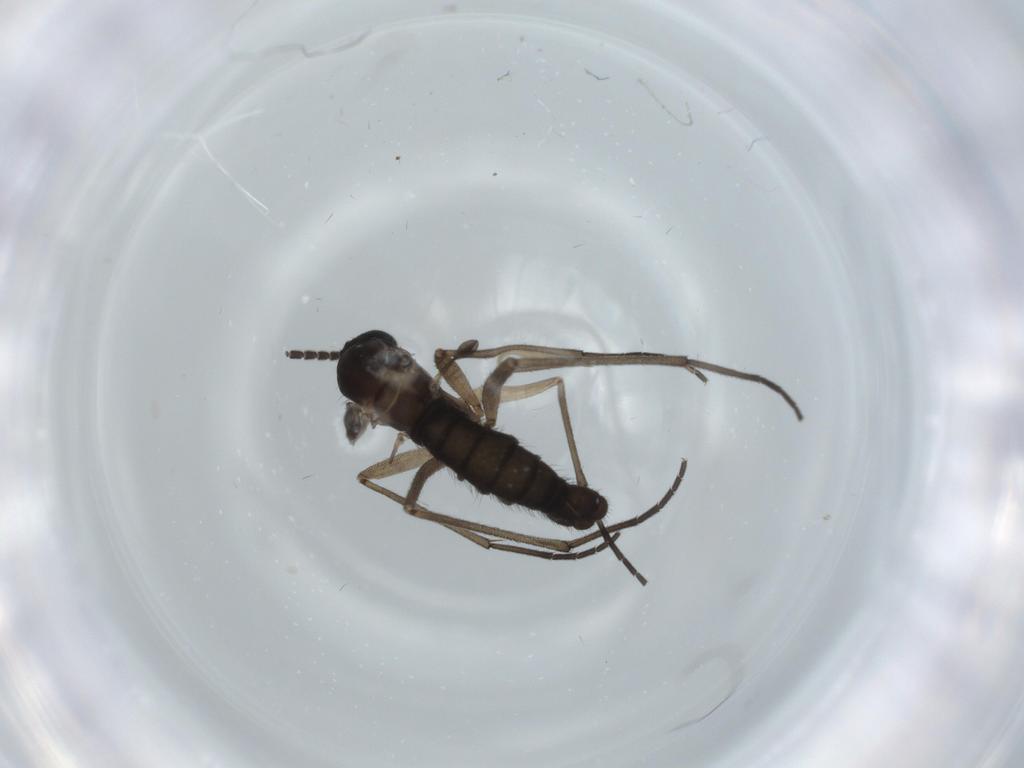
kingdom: Animalia
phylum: Arthropoda
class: Insecta
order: Diptera
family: Sciaridae
